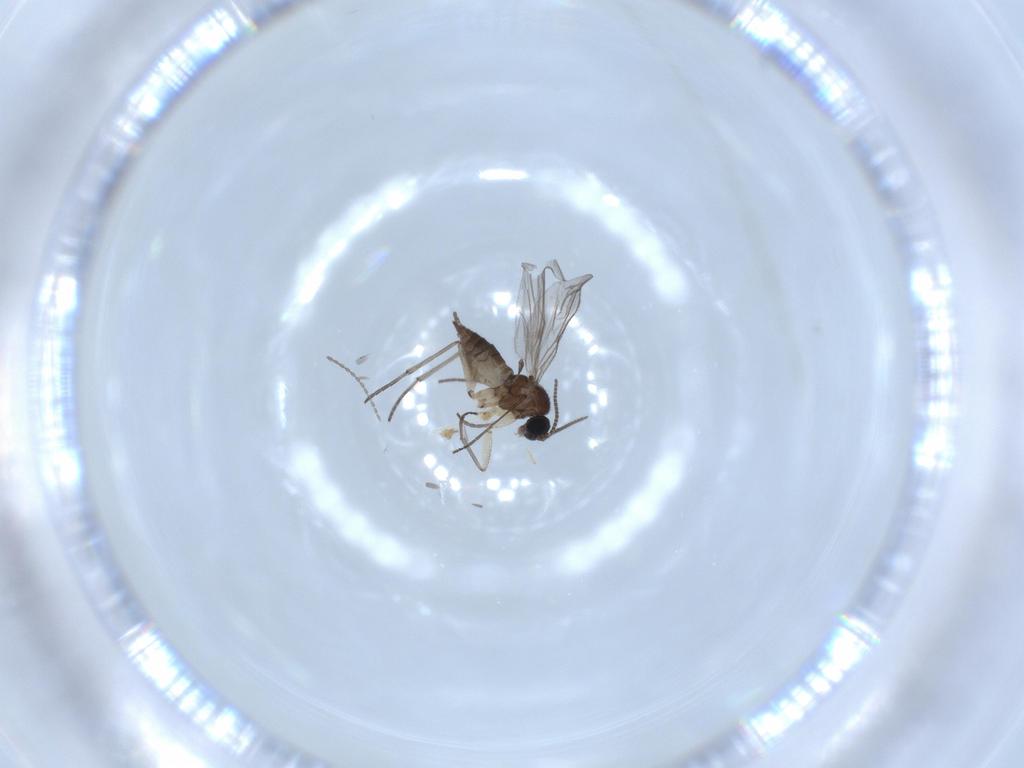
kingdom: Animalia
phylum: Arthropoda
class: Insecta
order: Diptera
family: Sciaridae
